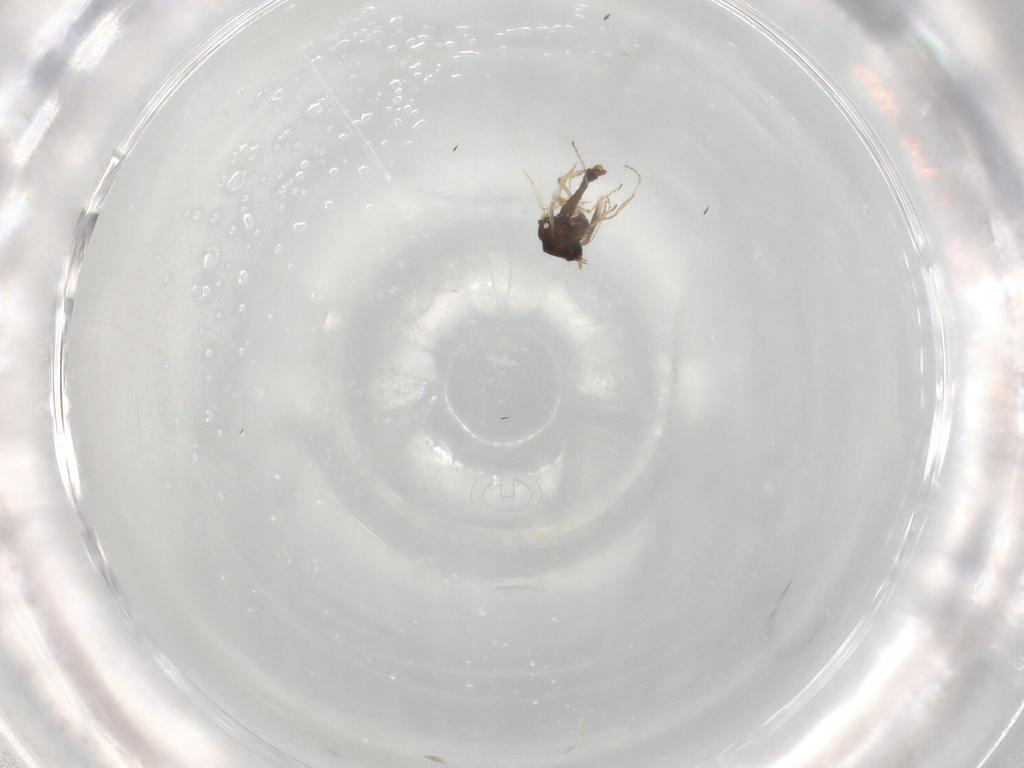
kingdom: Animalia
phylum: Arthropoda
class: Insecta
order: Diptera
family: Ceratopogonidae
